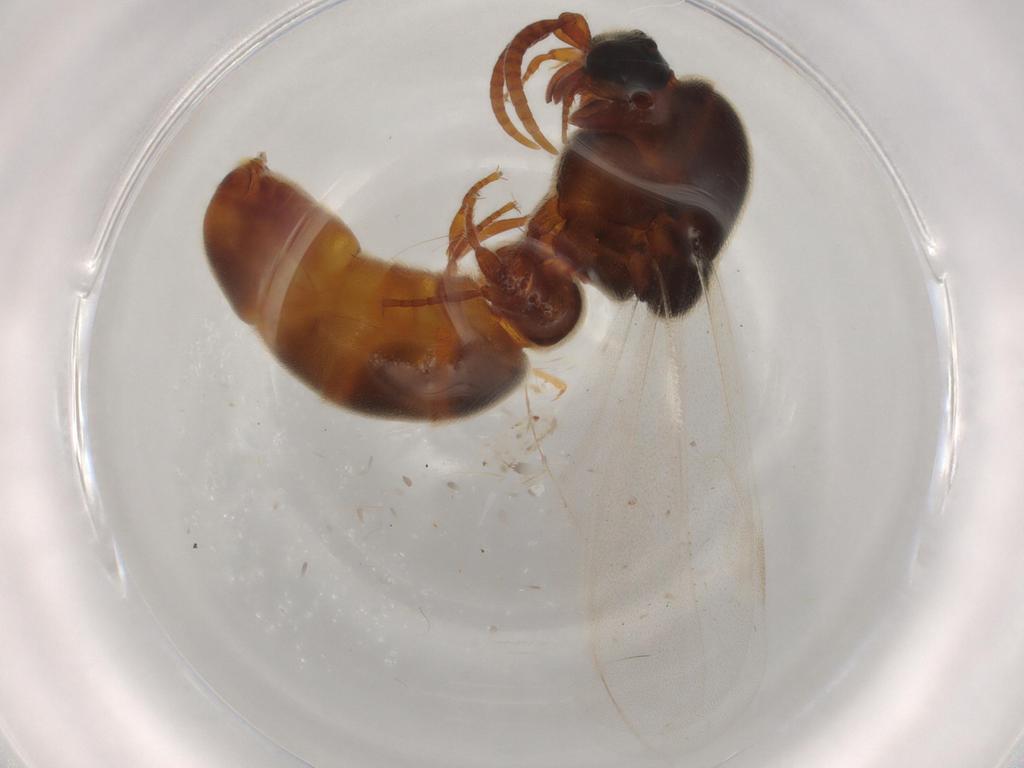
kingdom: Animalia
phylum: Arthropoda
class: Insecta
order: Hymenoptera
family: Formicidae
